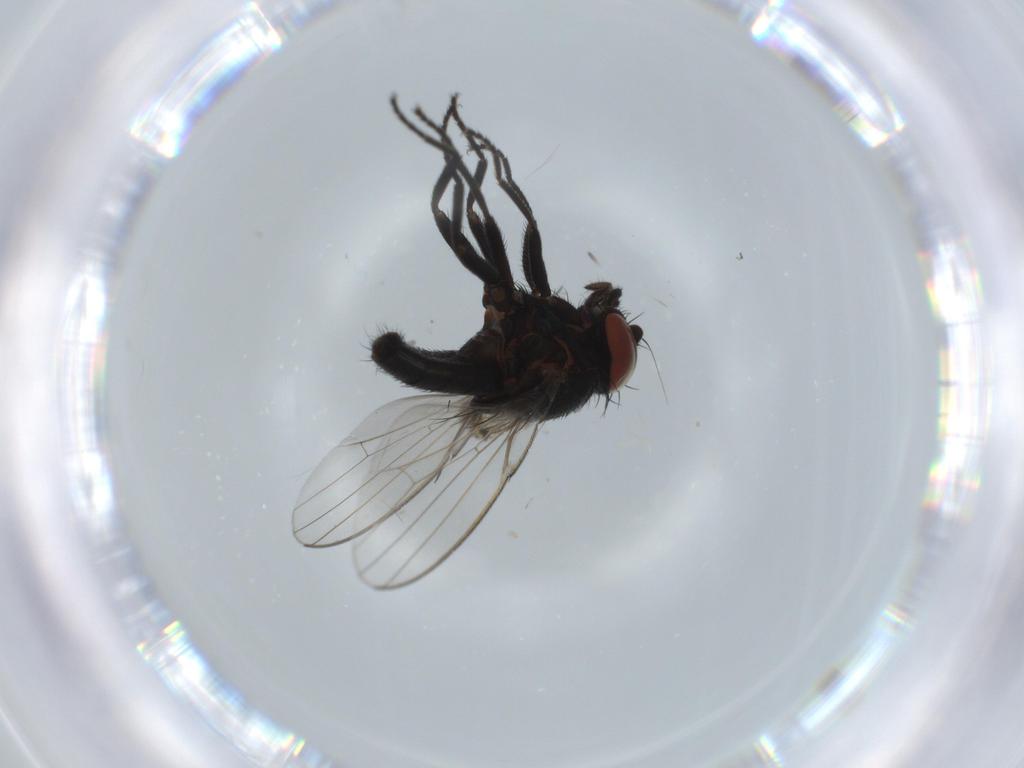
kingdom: Animalia
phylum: Arthropoda
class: Insecta
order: Diptera
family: Anthomyiidae
